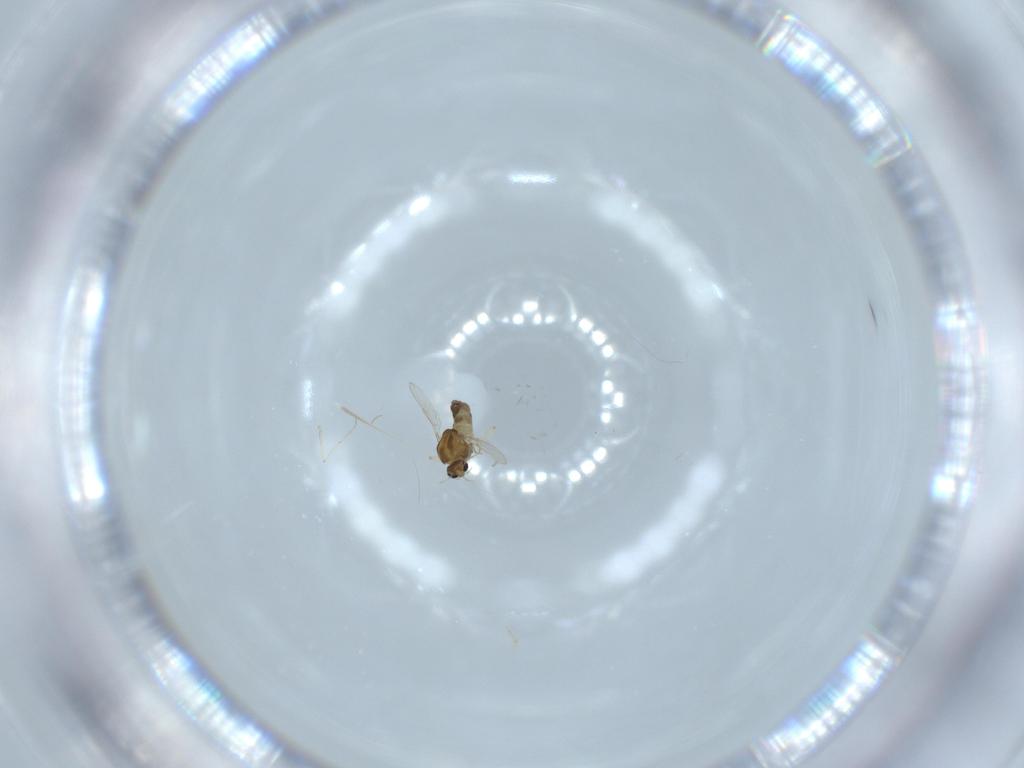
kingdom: Animalia
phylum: Arthropoda
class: Insecta
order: Diptera
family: Chironomidae
